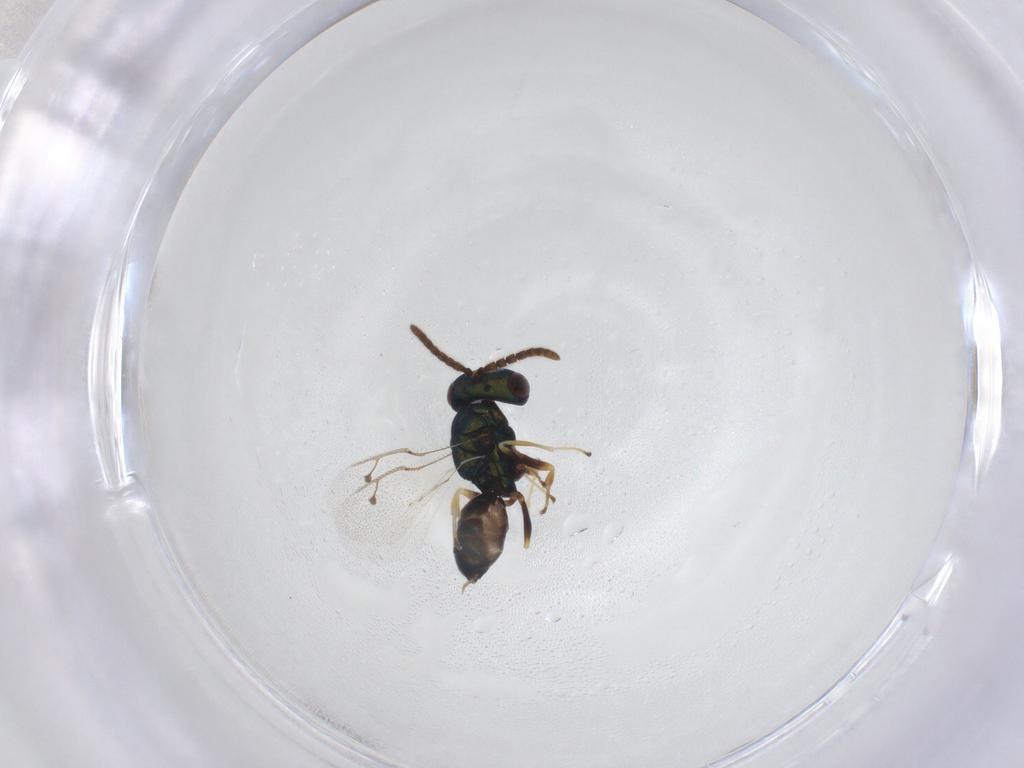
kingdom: Animalia
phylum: Arthropoda
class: Insecta
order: Hymenoptera
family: Pteromalidae
